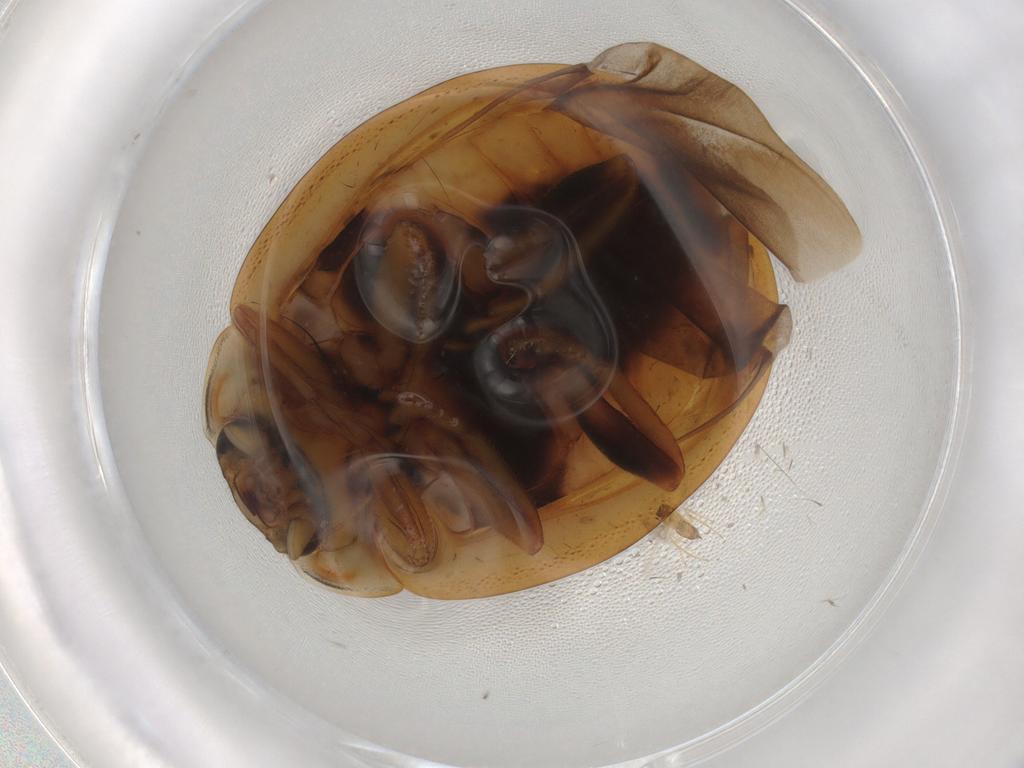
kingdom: Animalia
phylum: Arthropoda
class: Insecta
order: Coleoptera
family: Coccinellidae
